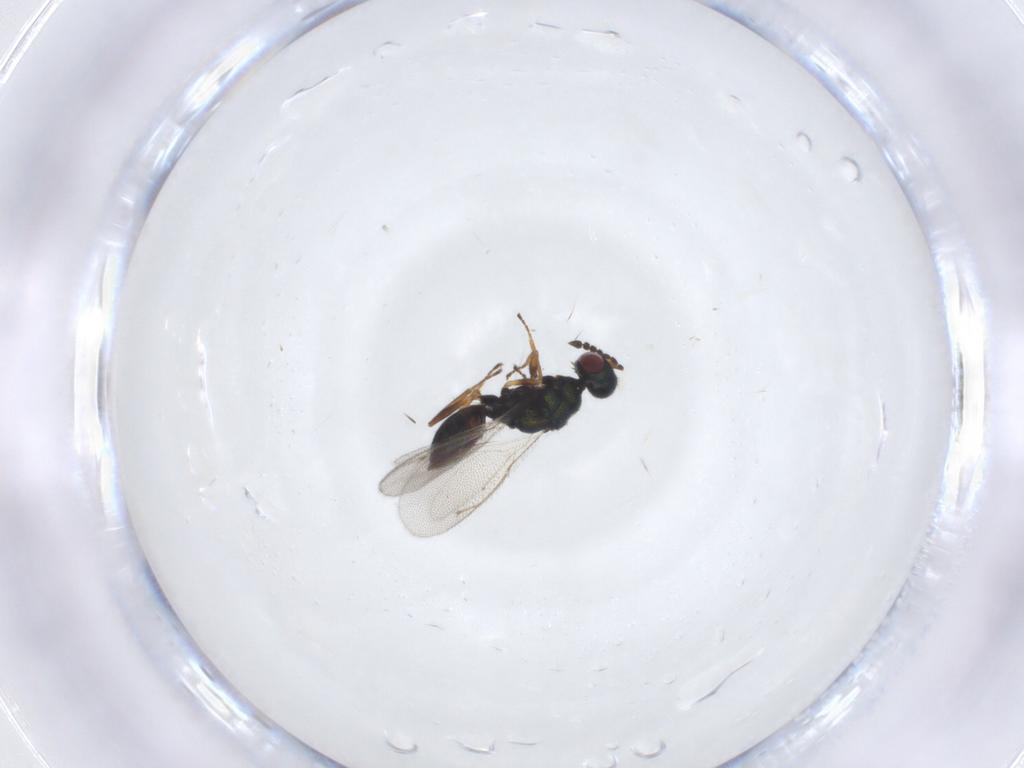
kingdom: Animalia
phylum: Arthropoda
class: Insecta
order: Hymenoptera
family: Eulophidae
